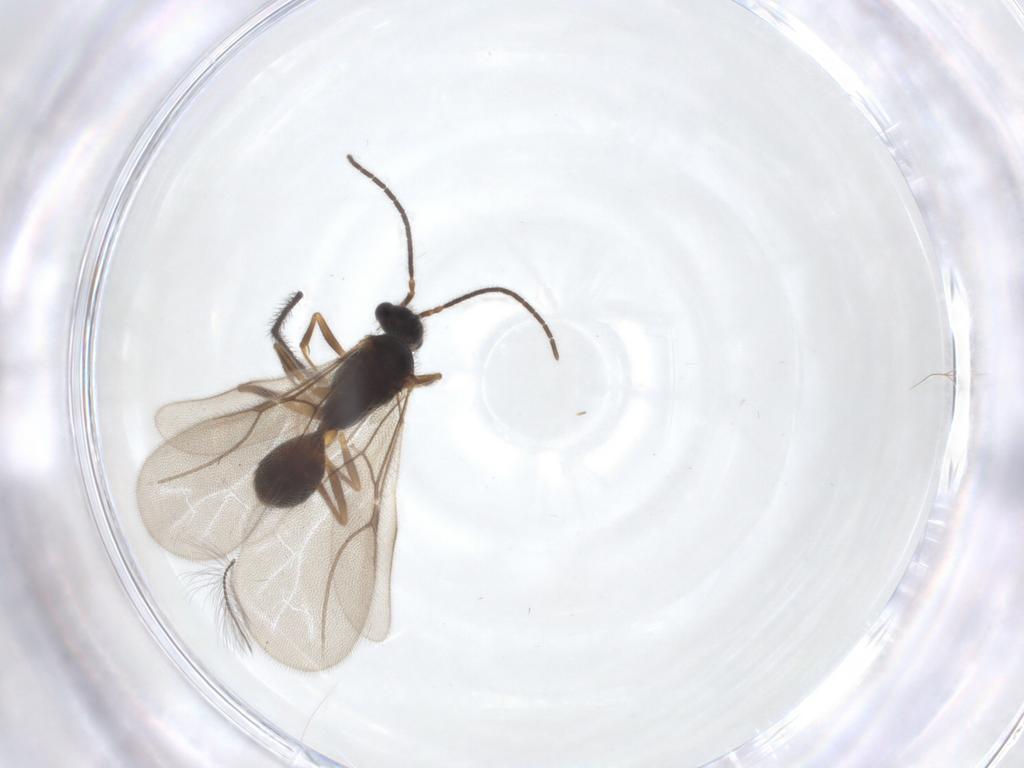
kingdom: Animalia
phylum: Arthropoda
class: Insecta
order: Hymenoptera
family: Bethylidae
